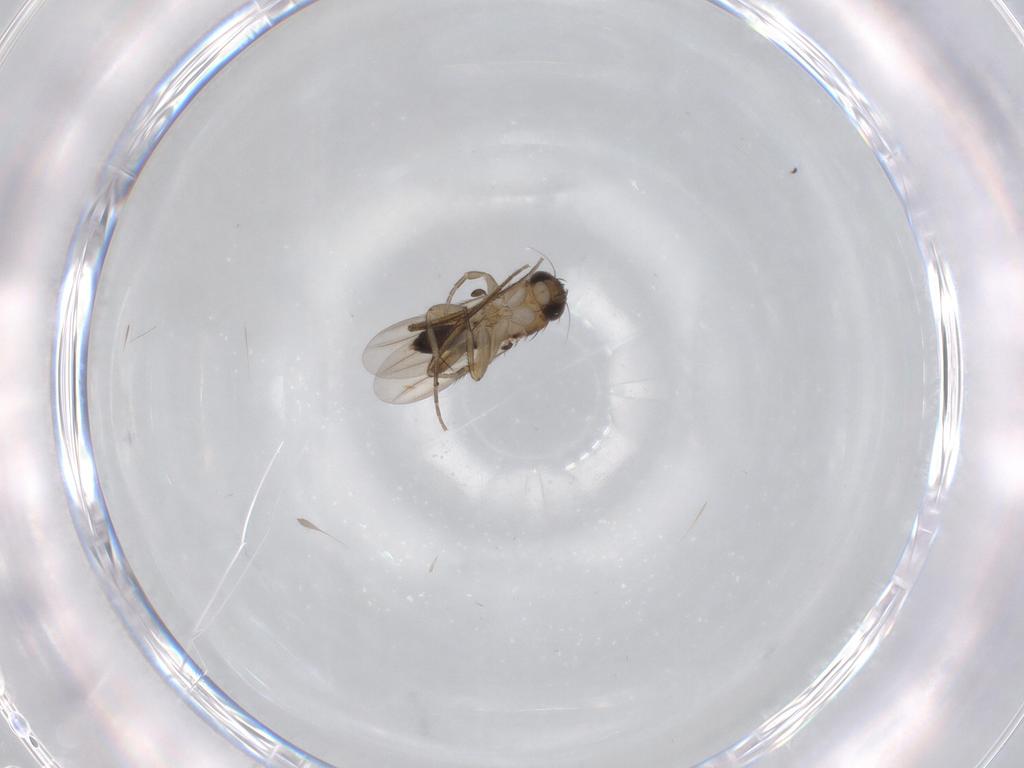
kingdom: Animalia
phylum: Arthropoda
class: Insecta
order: Diptera
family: Phoridae
